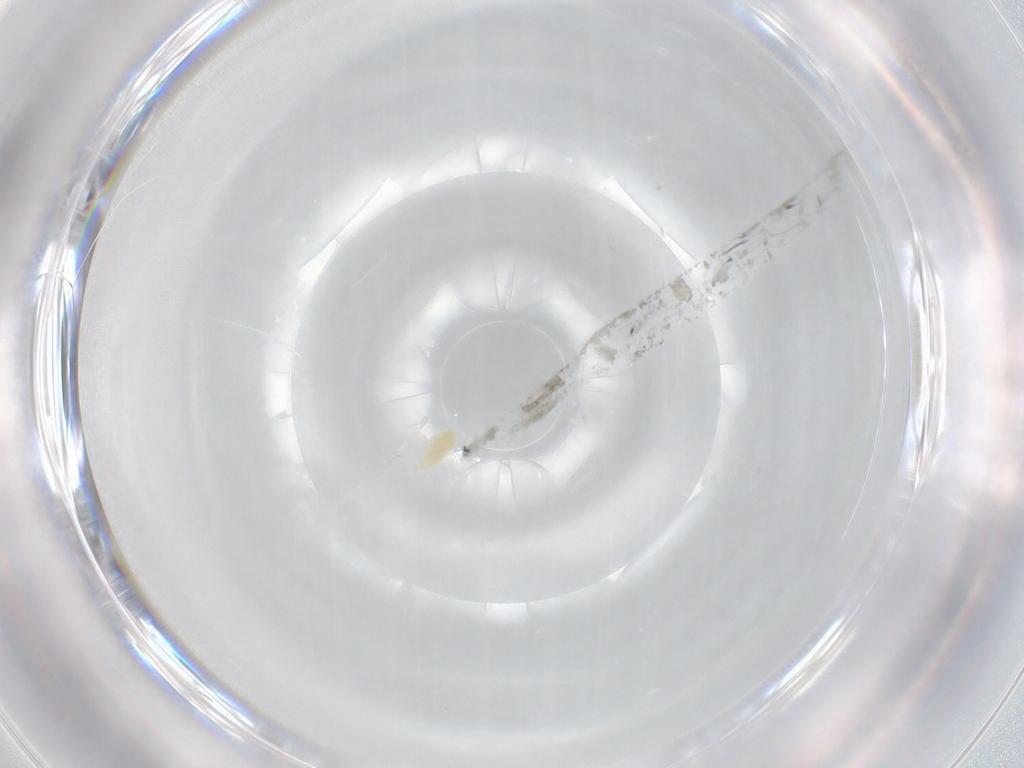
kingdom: Animalia
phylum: Arthropoda
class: Arachnida
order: Trombidiformes
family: Eupodidae
